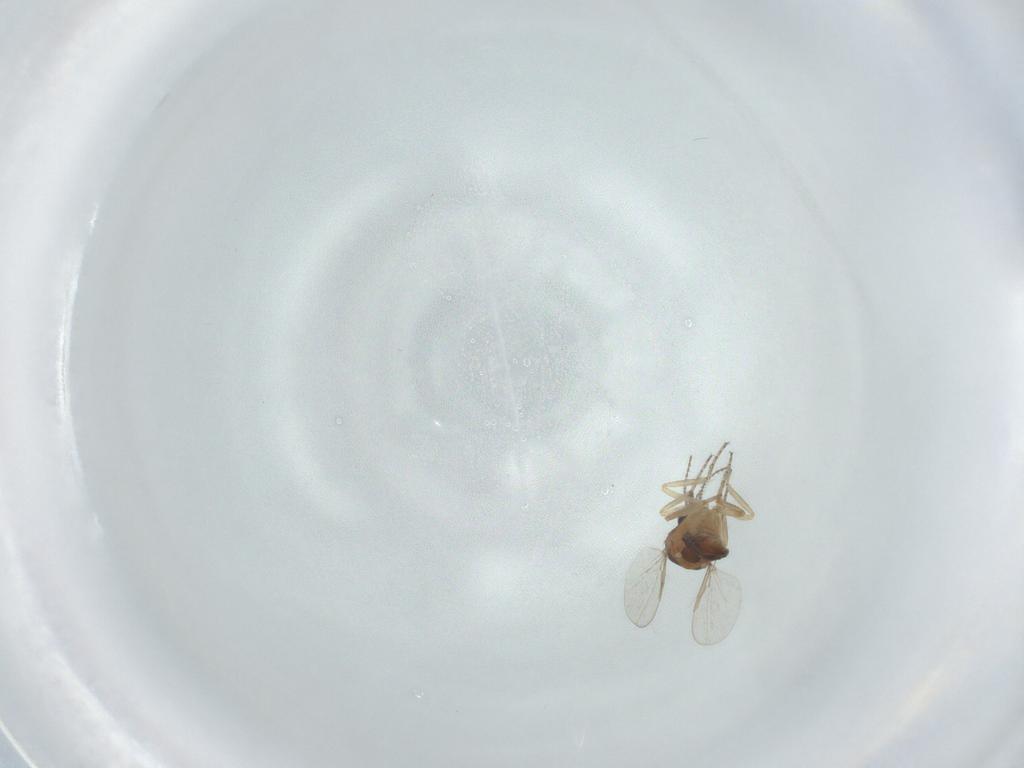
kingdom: Animalia
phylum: Arthropoda
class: Insecta
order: Diptera
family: Ceratopogonidae
